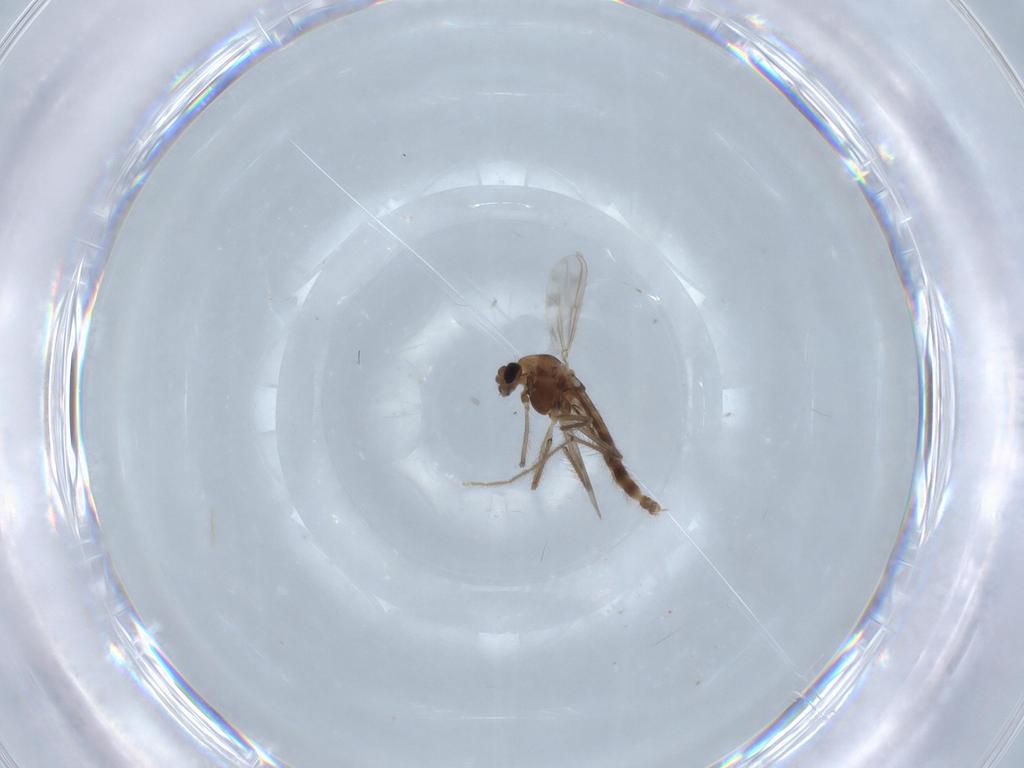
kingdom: Animalia
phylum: Arthropoda
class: Insecta
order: Diptera
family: Chironomidae
